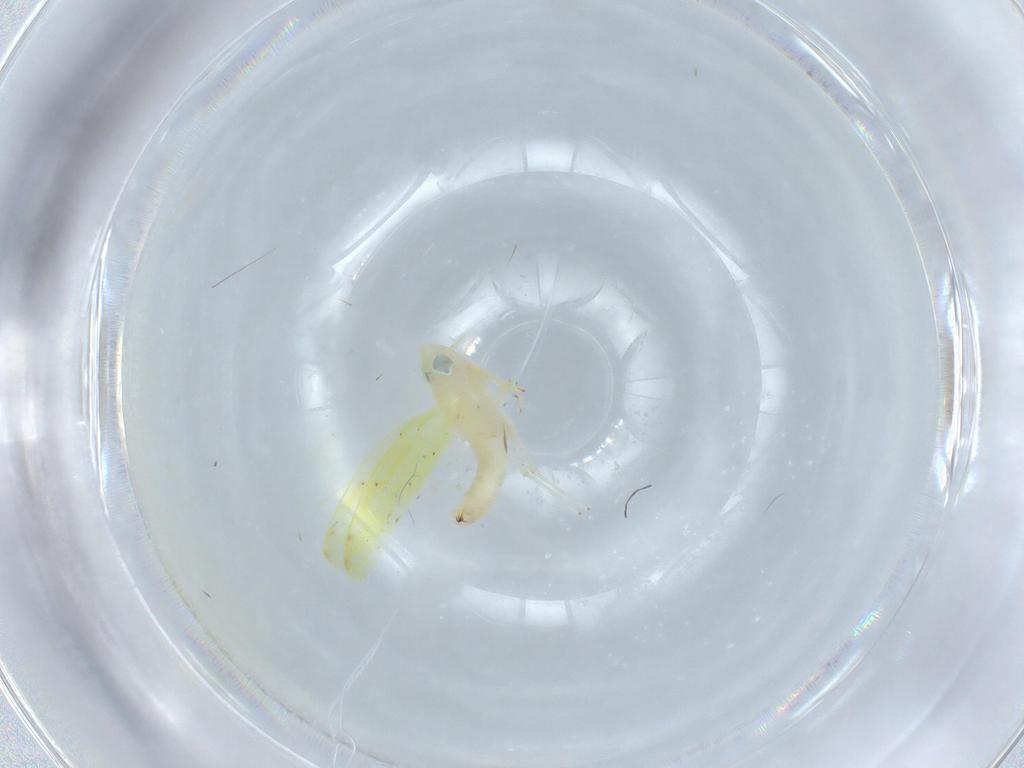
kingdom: Animalia
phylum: Arthropoda
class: Insecta
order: Hemiptera
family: Cicadellidae
